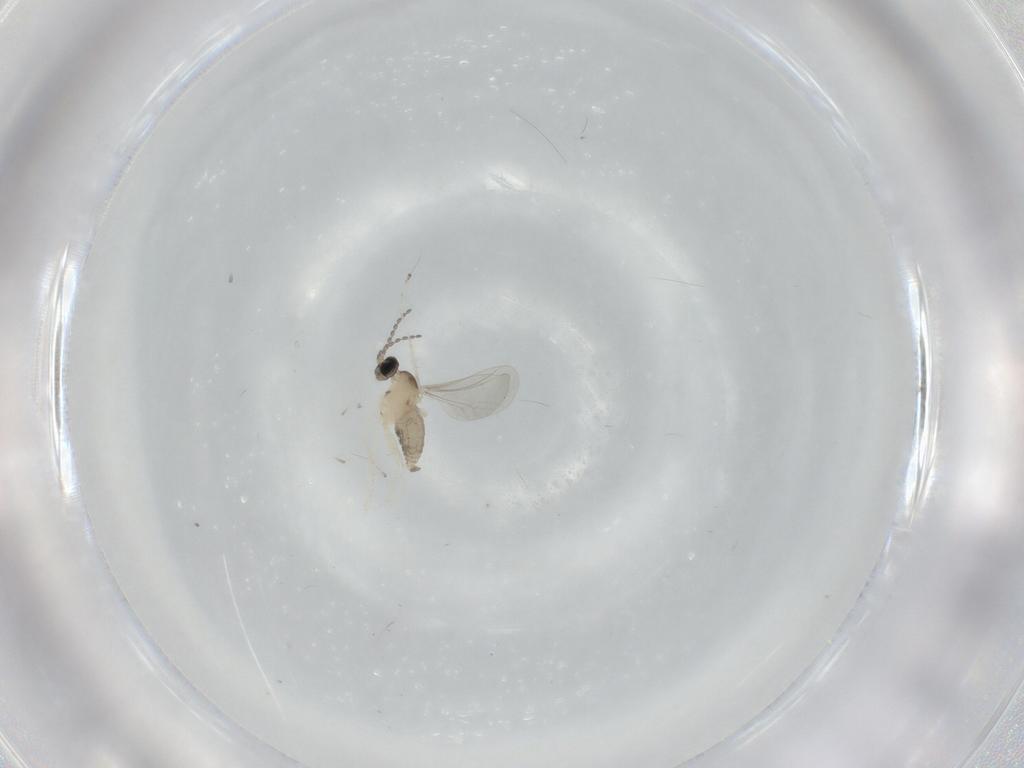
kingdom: Animalia
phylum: Arthropoda
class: Insecta
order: Diptera
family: Cecidomyiidae
